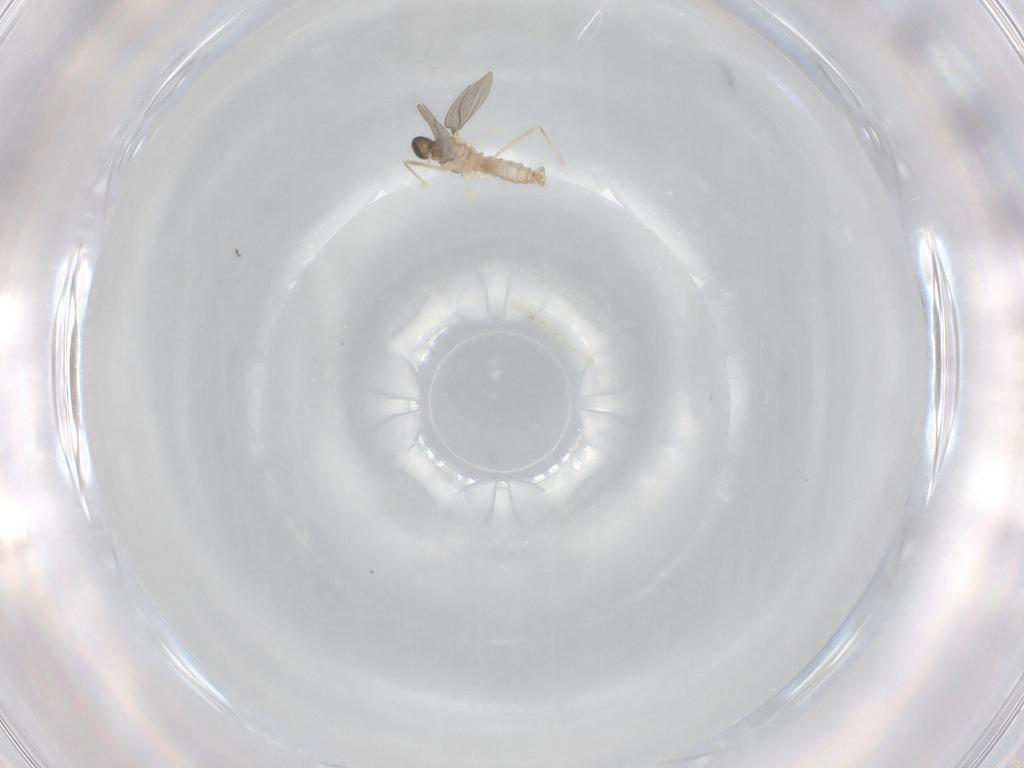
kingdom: Animalia
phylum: Arthropoda
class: Insecta
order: Diptera
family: Cecidomyiidae
